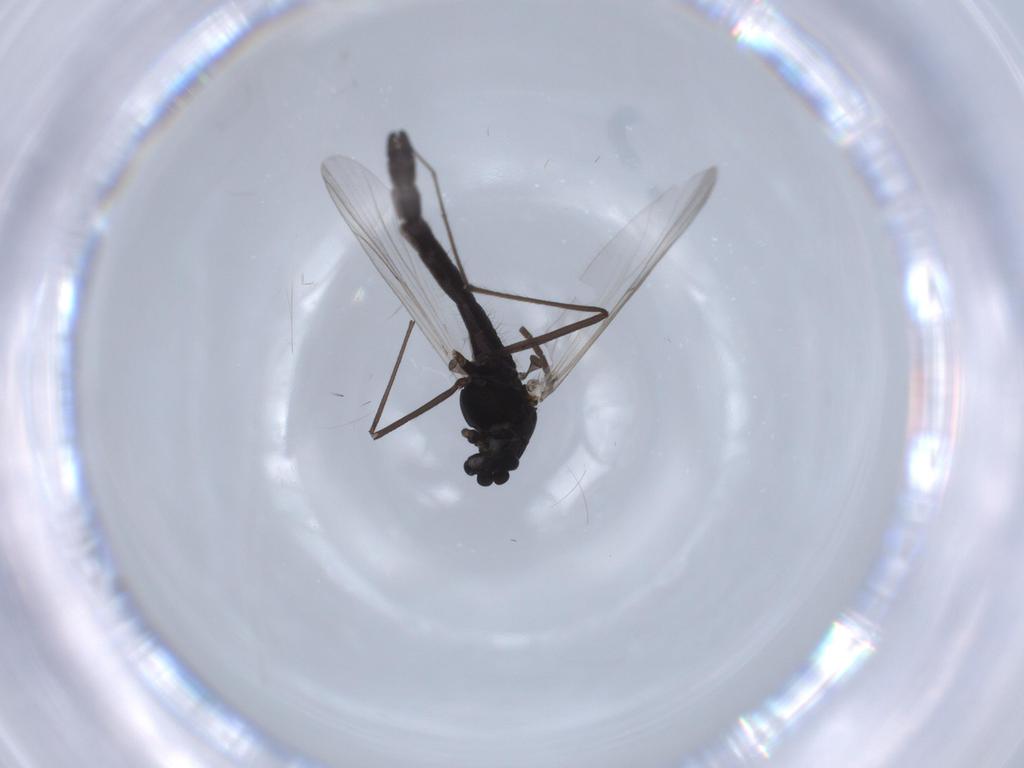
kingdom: Animalia
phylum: Arthropoda
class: Insecta
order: Diptera
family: Chironomidae
